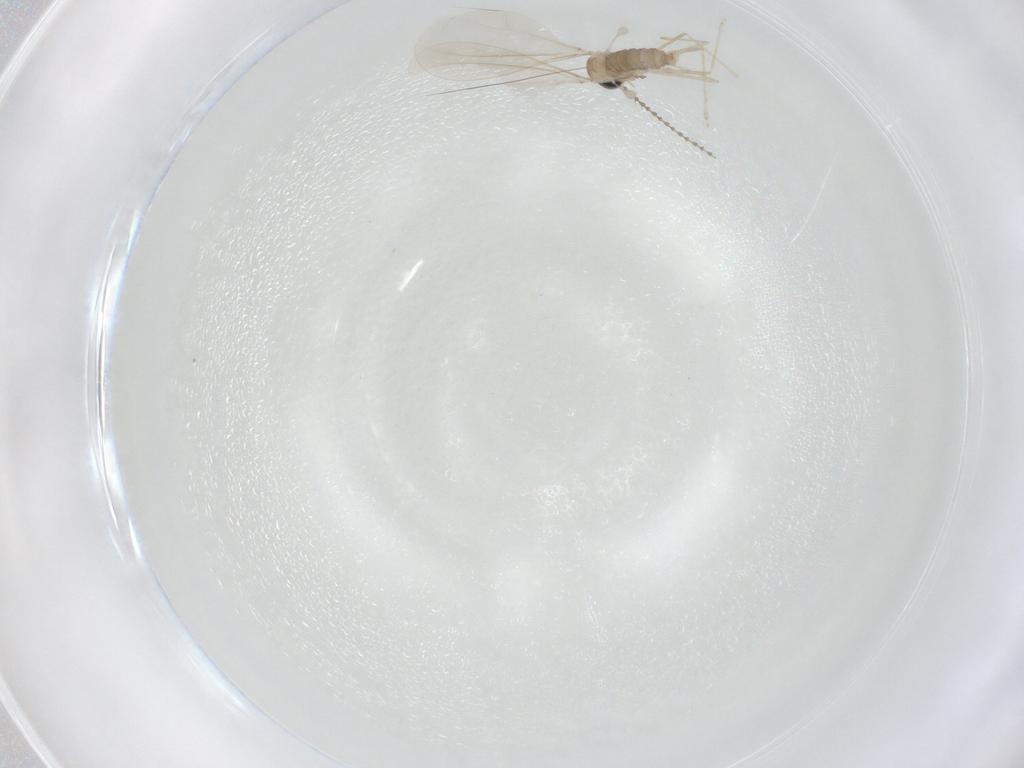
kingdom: Animalia
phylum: Arthropoda
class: Insecta
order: Diptera
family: Cecidomyiidae
